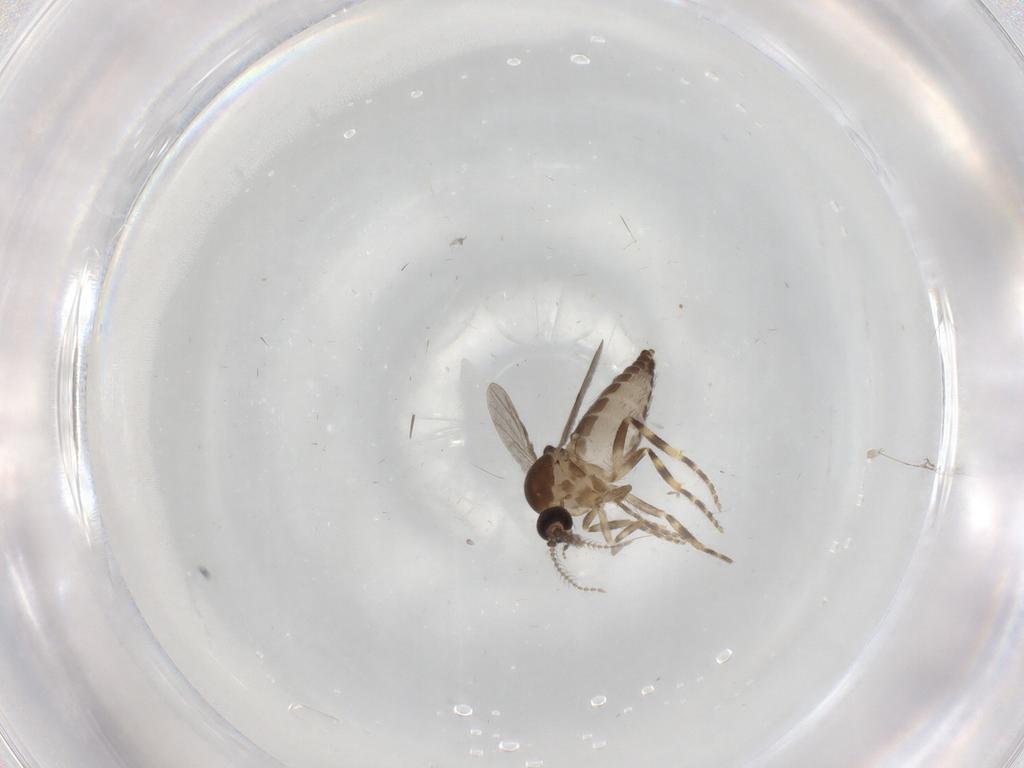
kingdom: Animalia
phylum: Arthropoda
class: Insecta
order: Diptera
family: Ceratopogonidae
